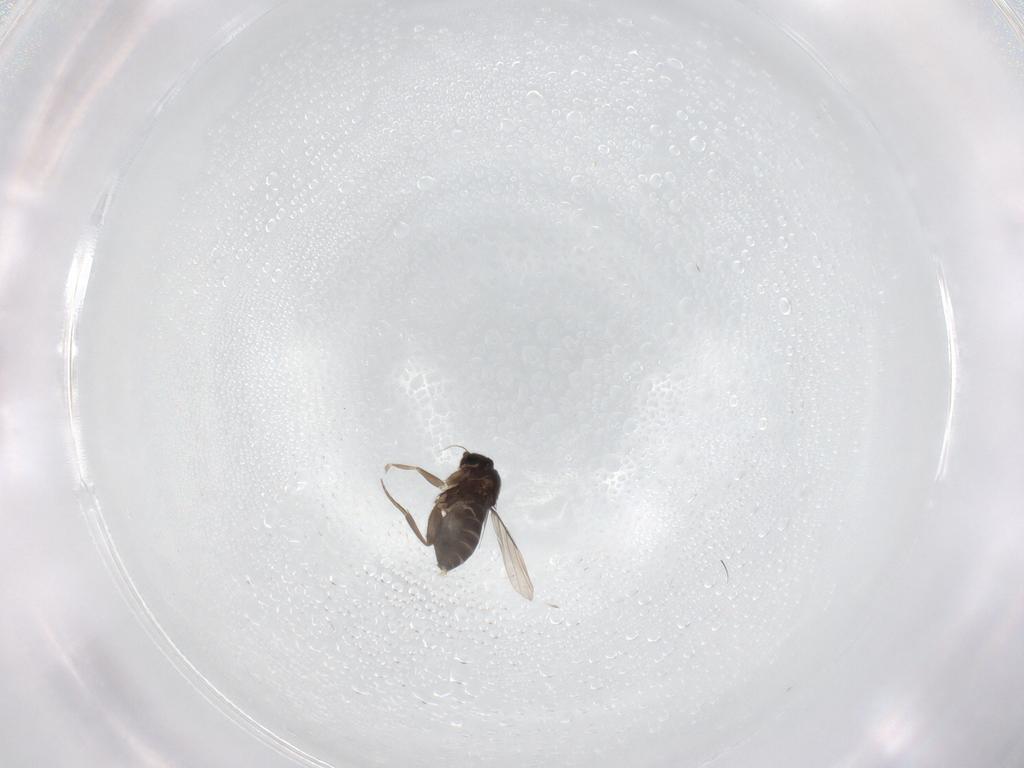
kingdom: Animalia
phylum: Arthropoda
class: Insecta
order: Diptera
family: Phoridae
